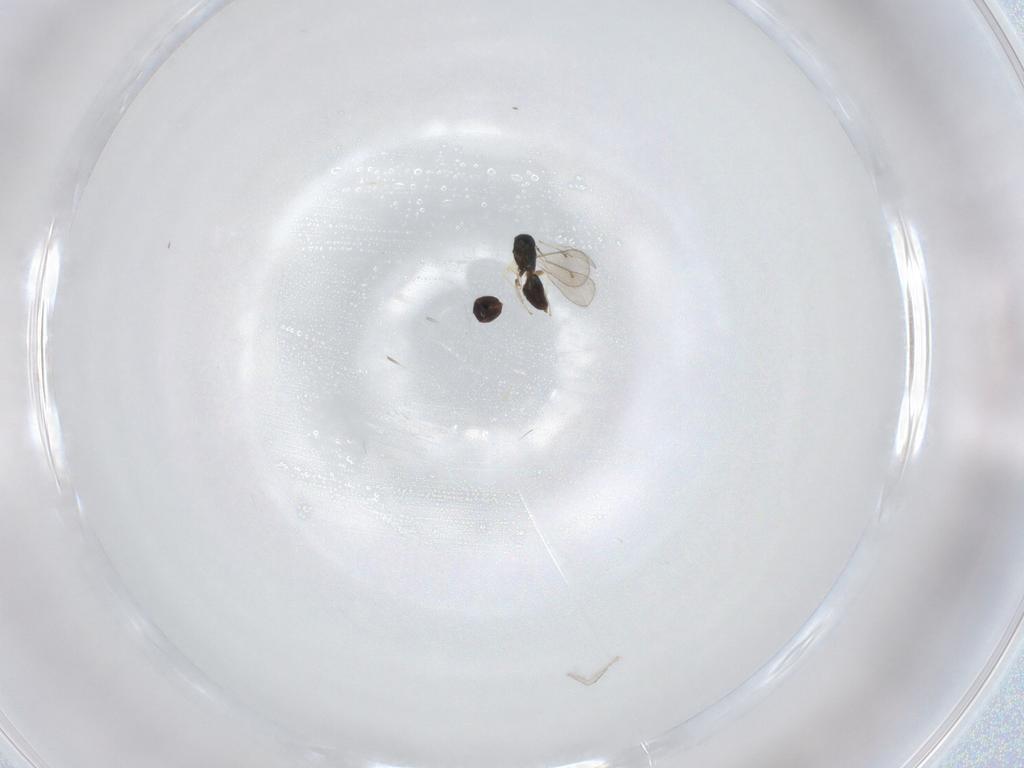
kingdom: Animalia
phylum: Arthropoda
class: Insecta
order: Hymenoptera
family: Eulophidae
